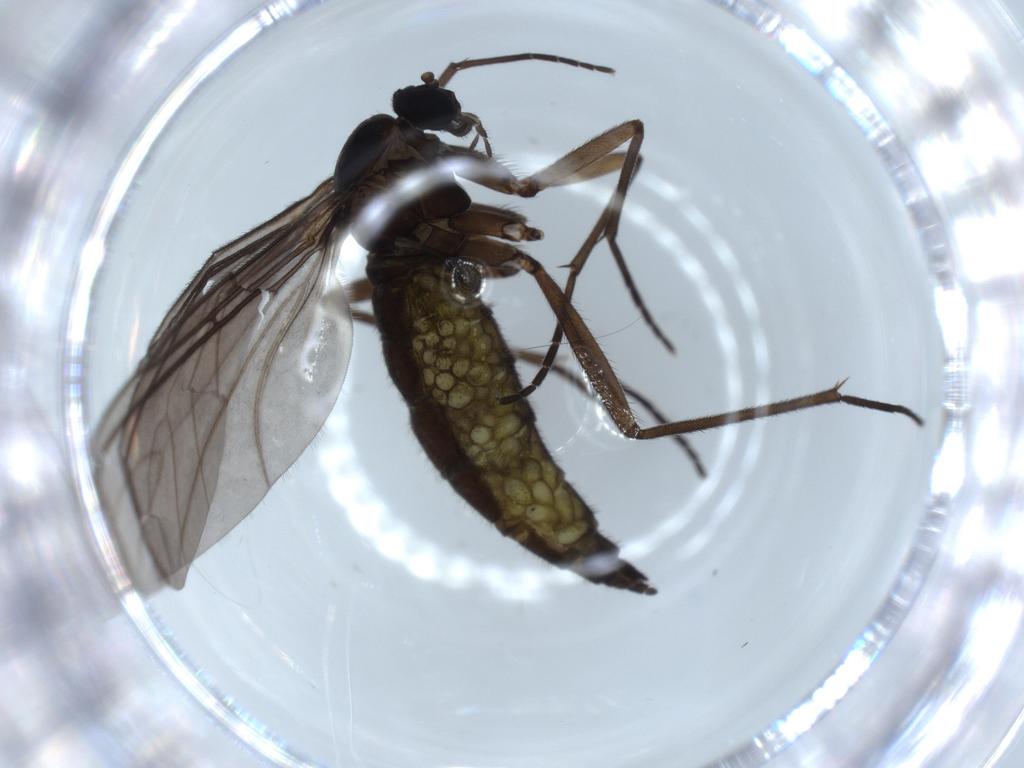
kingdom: Animalia
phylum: Arthropoda
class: Insecta
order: Diptera
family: Sciaridae
